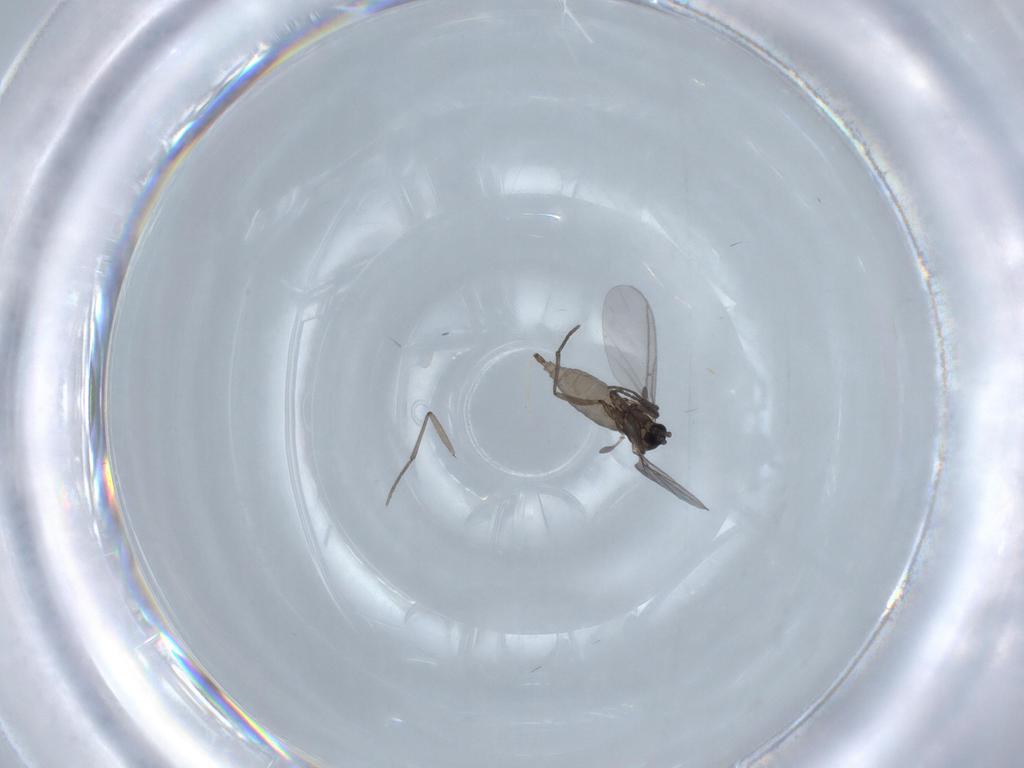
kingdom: Animalia
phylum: Arthropoda
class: Insecta
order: Diptera
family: Sciaridae
